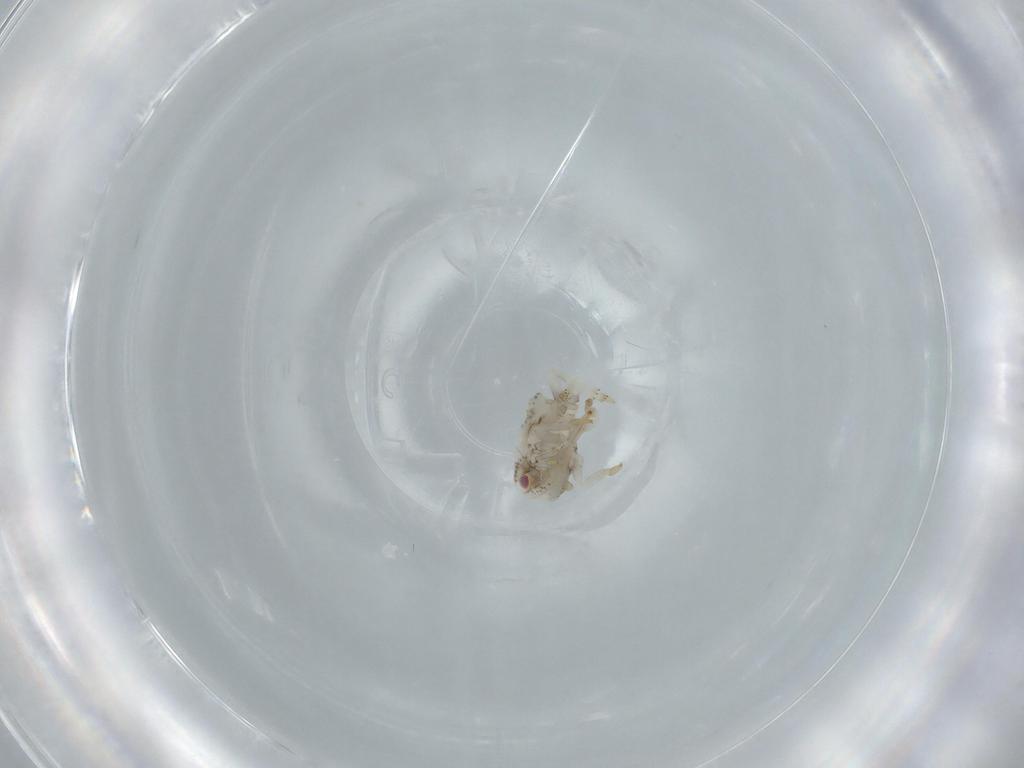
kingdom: Animalia
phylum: Arthropoda
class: Insecta
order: Hemiptera
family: Acanaloniidae
